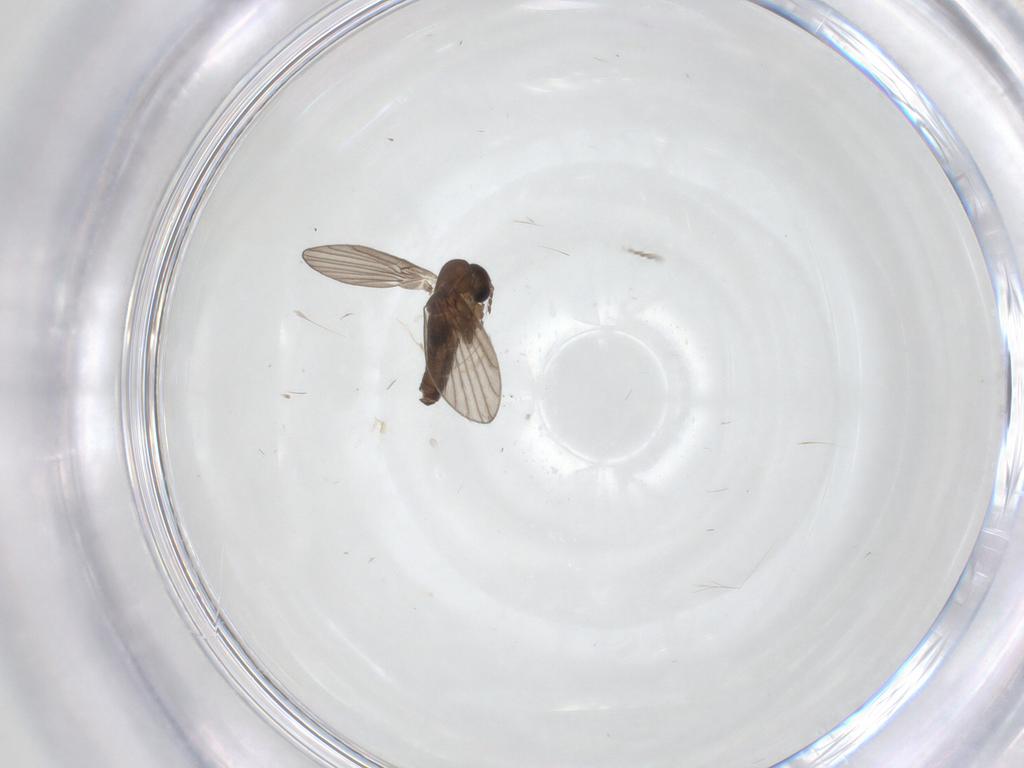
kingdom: Animalia
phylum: Arthropoda
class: Insecta
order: Diptera
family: Psychodidae
